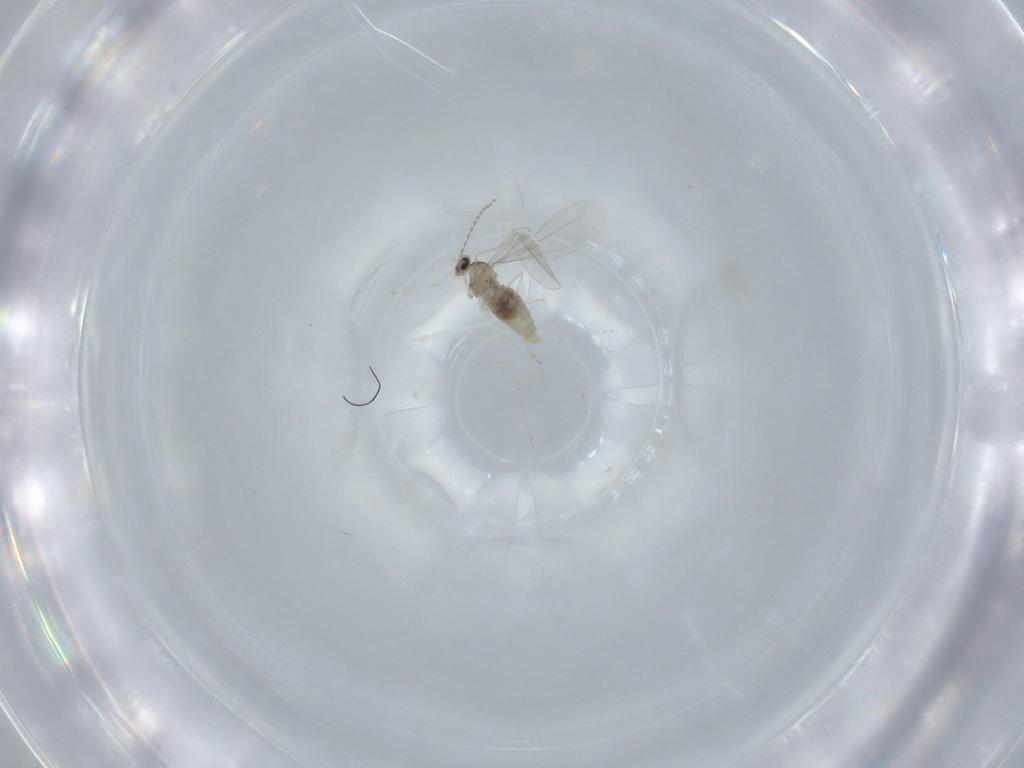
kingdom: Animalia
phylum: Arthropoda
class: Insecta
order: Diptera
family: Cecidomyiidae
